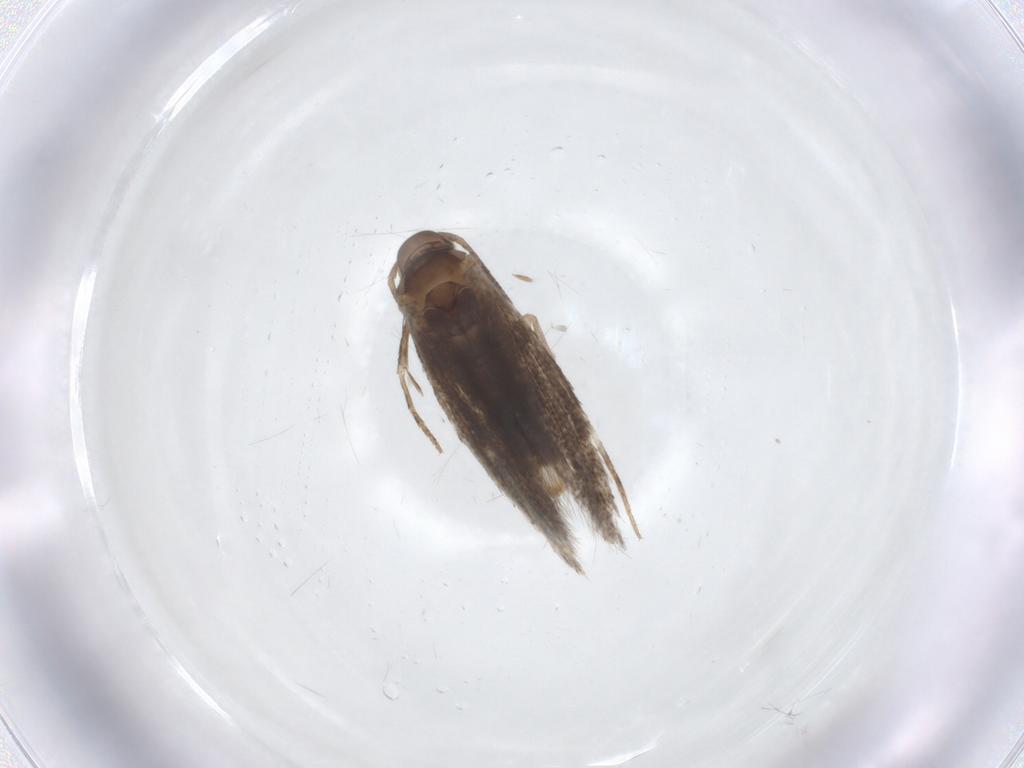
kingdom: Animalia
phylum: Arthropoda
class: Insecta
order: Lepidoptera
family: Elachistidae
